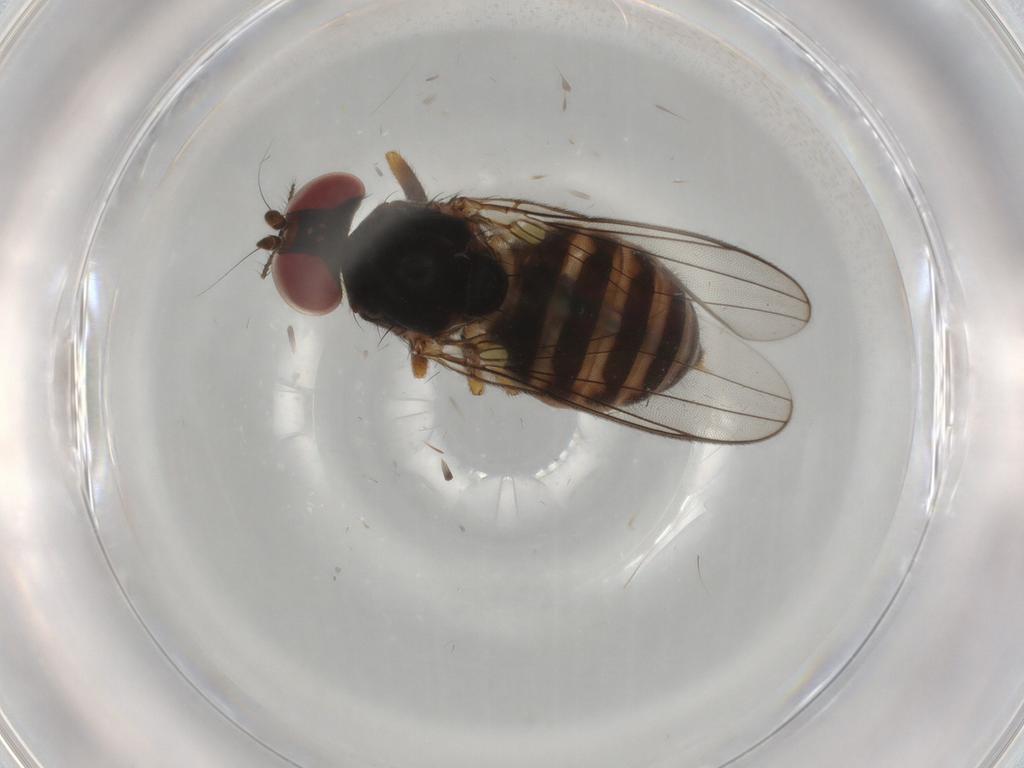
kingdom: Animalia
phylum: Arthropoda
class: Insecta
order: Diptera
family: Aulacigastridae
